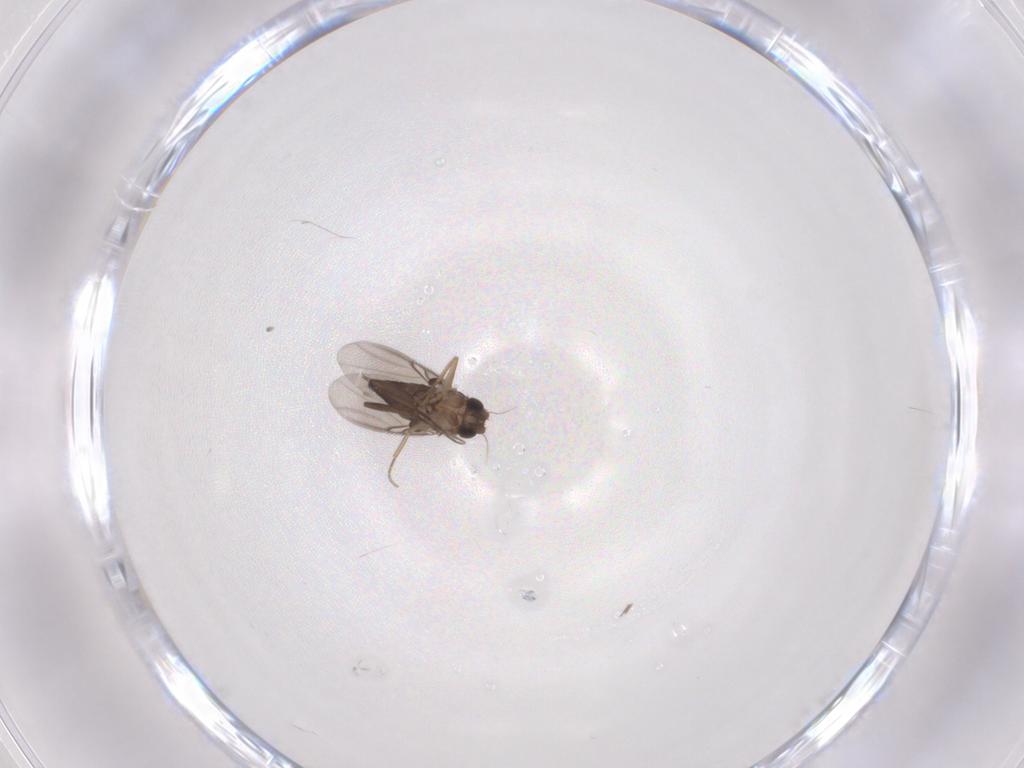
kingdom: Animalia
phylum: Arthropoda
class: Insecta
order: Diptera
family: Phoridae
